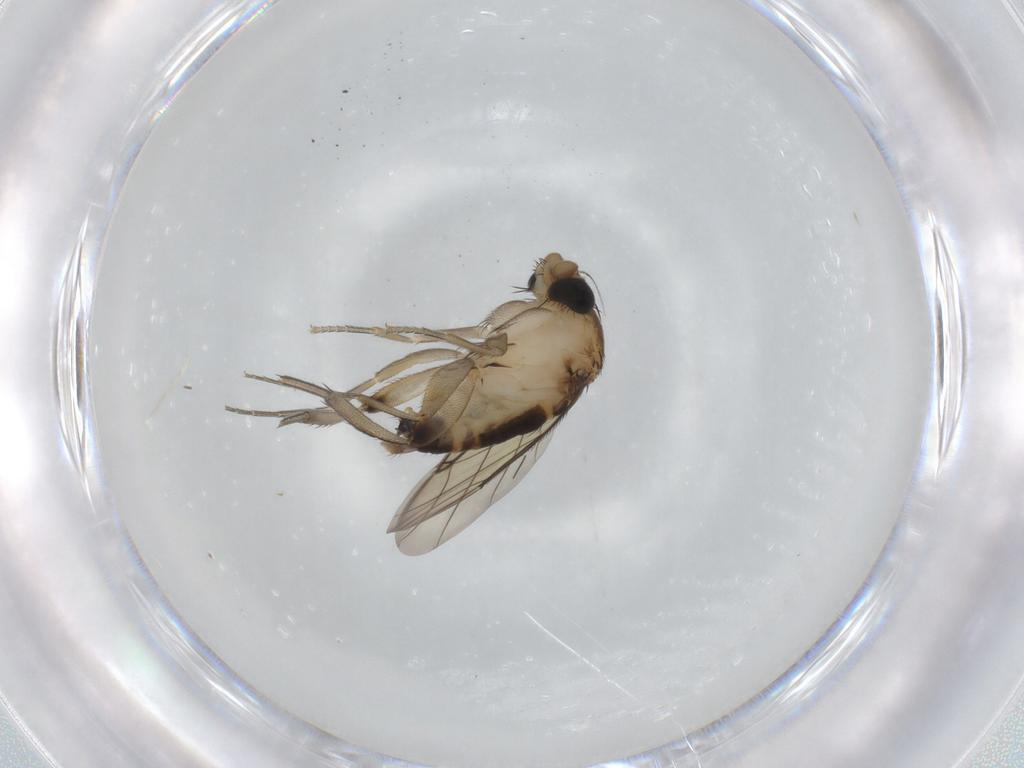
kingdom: Animalia
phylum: Arthropoda
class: Insecta
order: Diptera
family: Phoridae
